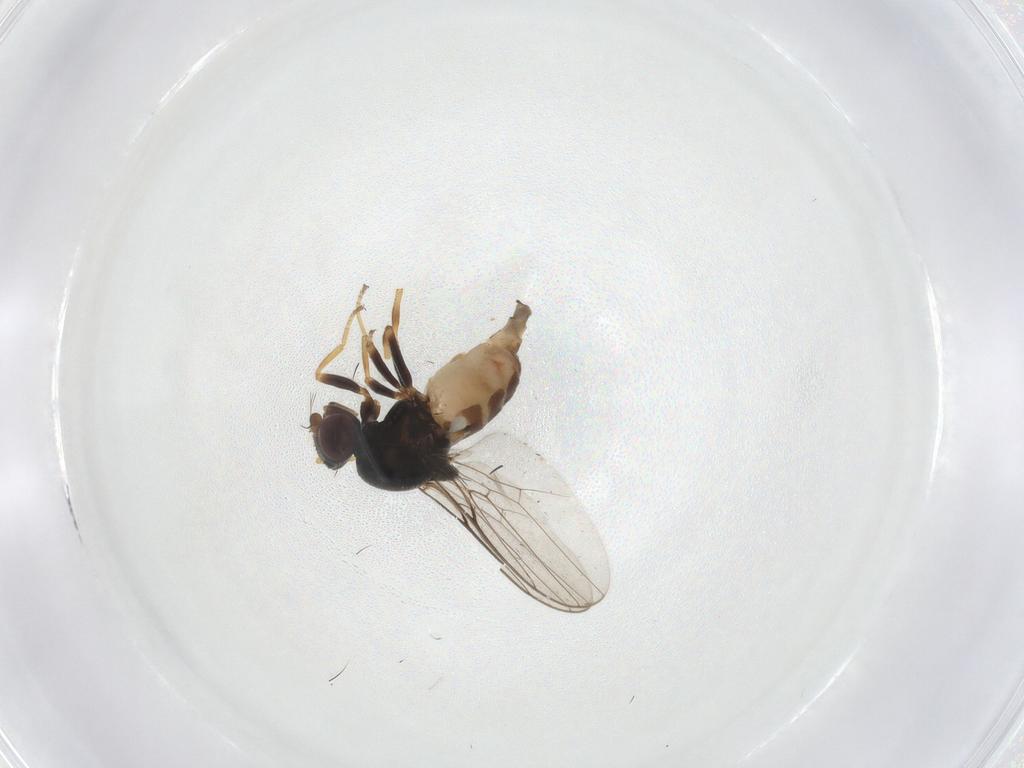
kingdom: Animalia
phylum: Arthropoda
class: Insecta
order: Diptera
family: Chloropidae
